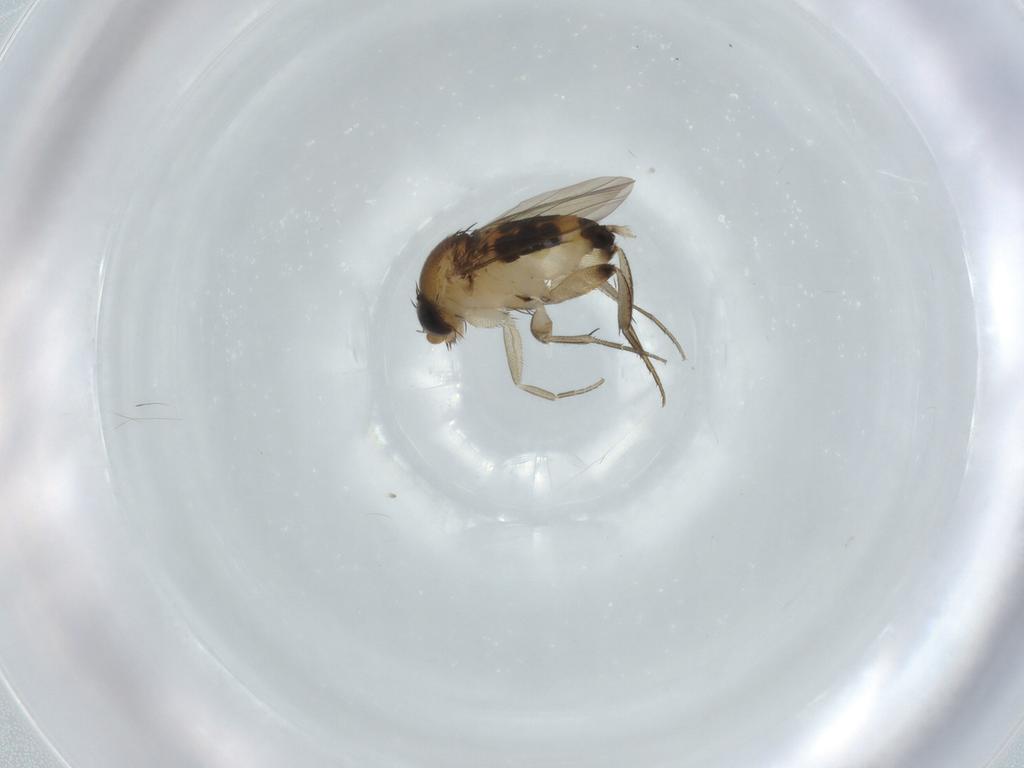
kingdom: Animalia
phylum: Arthropoda
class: Insecta
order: Diptera
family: Phoridae
